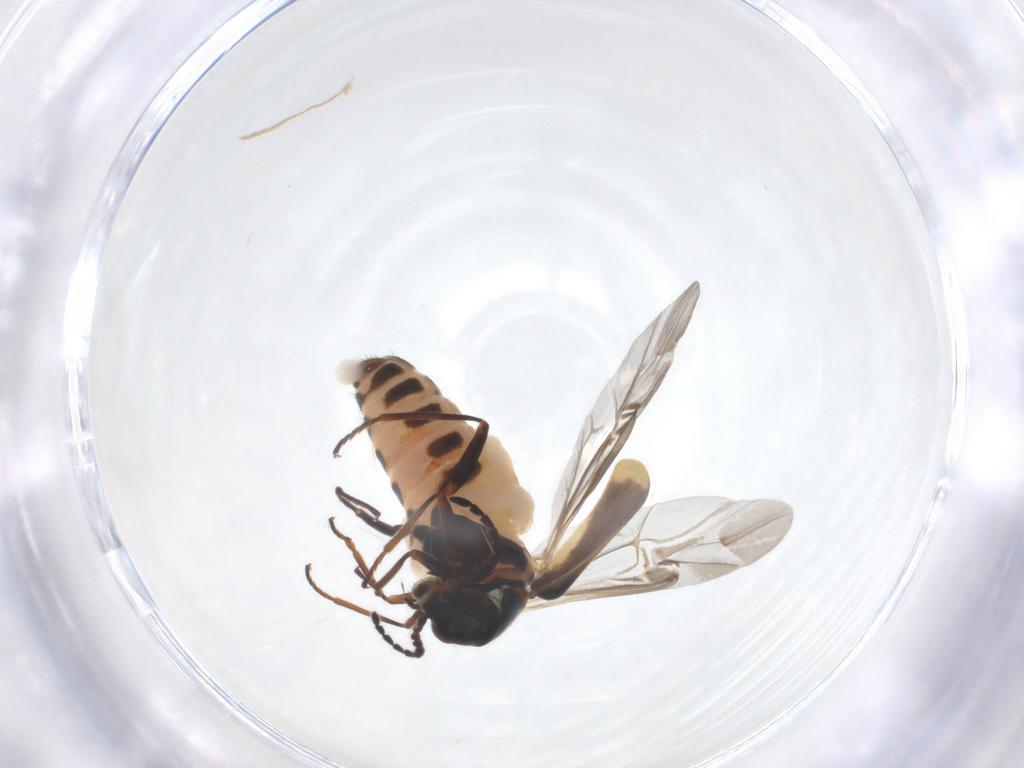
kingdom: Animalia
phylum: Arthropoda
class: Insecta
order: Coleoptera
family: Melyridae
